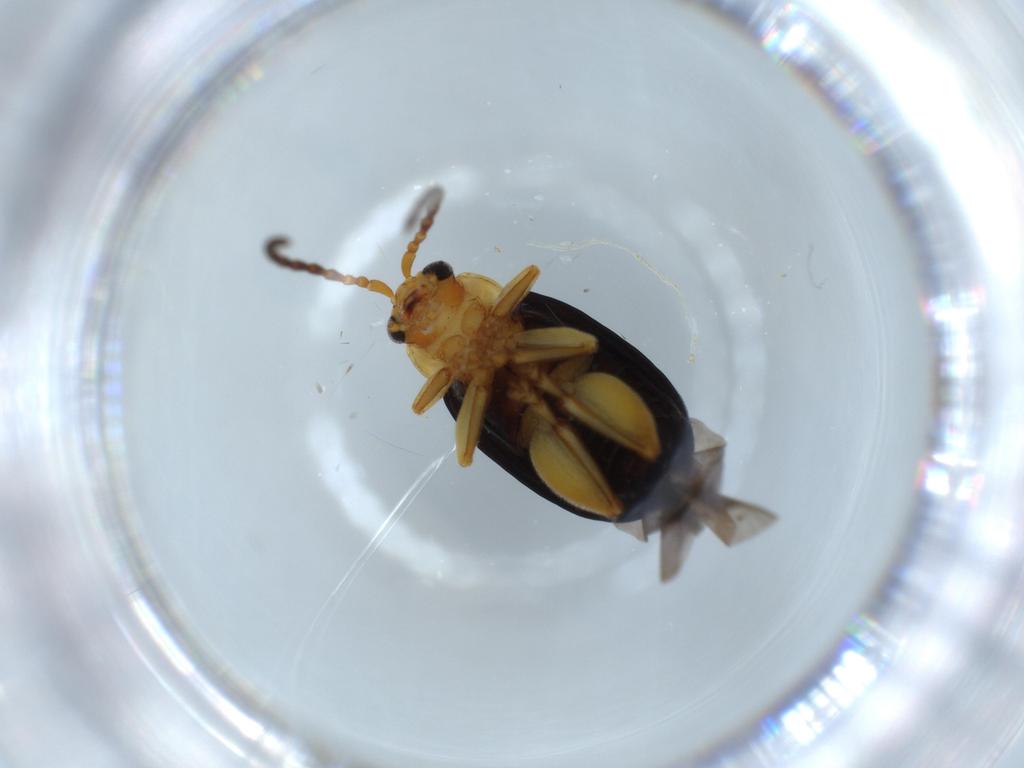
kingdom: Animalia
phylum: Arthropoda
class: Insecta
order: Coleoptera
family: Chrysomelidae
